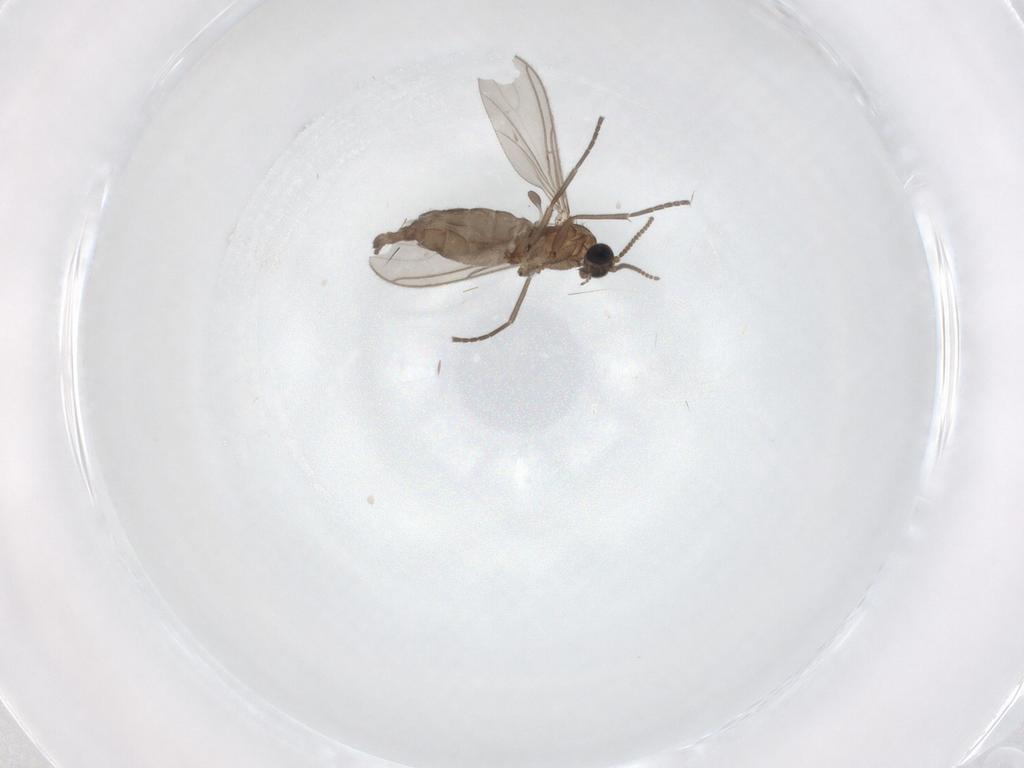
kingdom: Animalia
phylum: Arthropoda
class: Insecta
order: Diptera
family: Sciaridae
